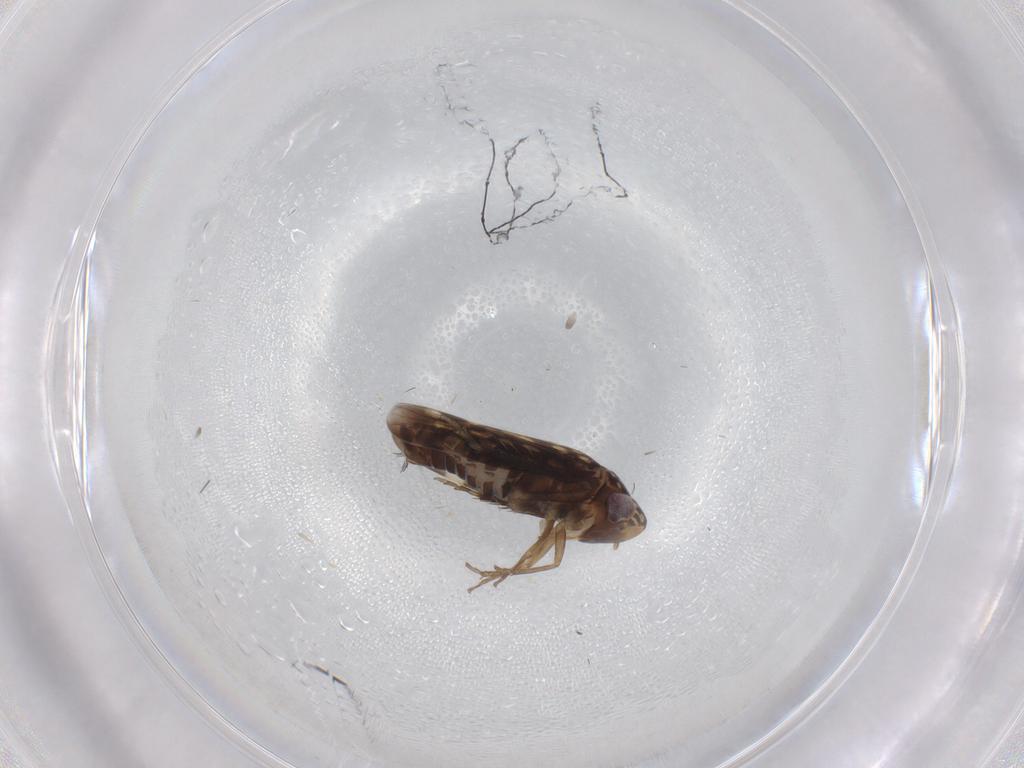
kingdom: Animalia
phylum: Arthropoda
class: Insecta
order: Hemiptera
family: Cicadellidae
